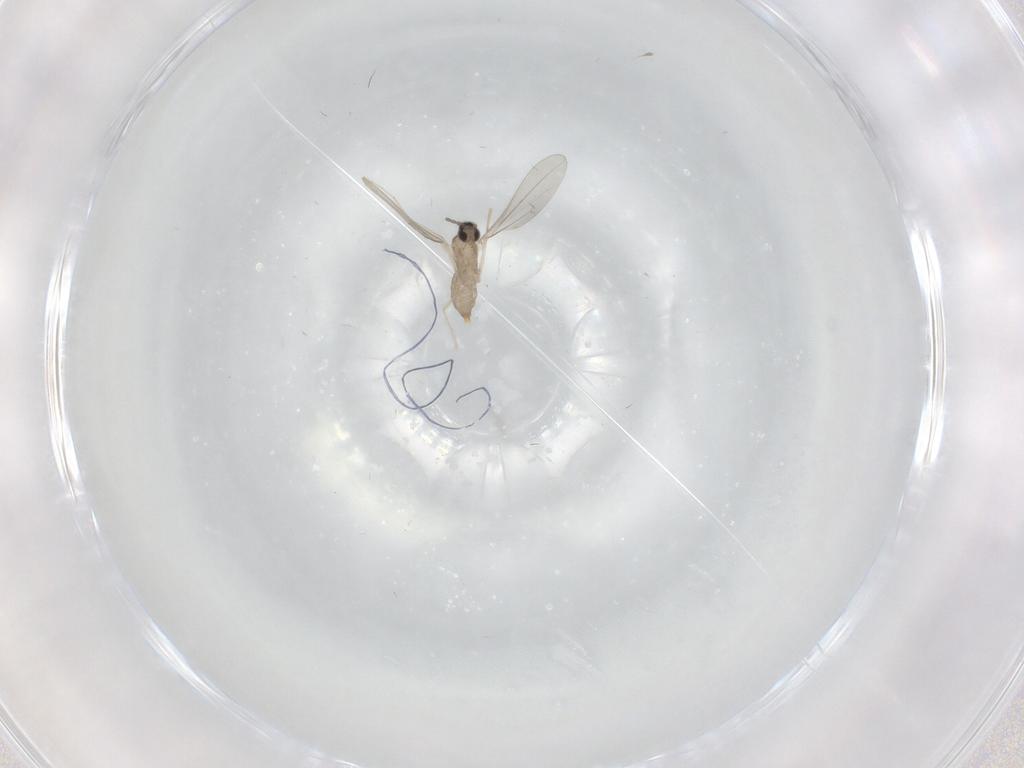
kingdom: Animalia
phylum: Arthropoda
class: Insecta
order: Diptera
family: Cecidomyiidae
